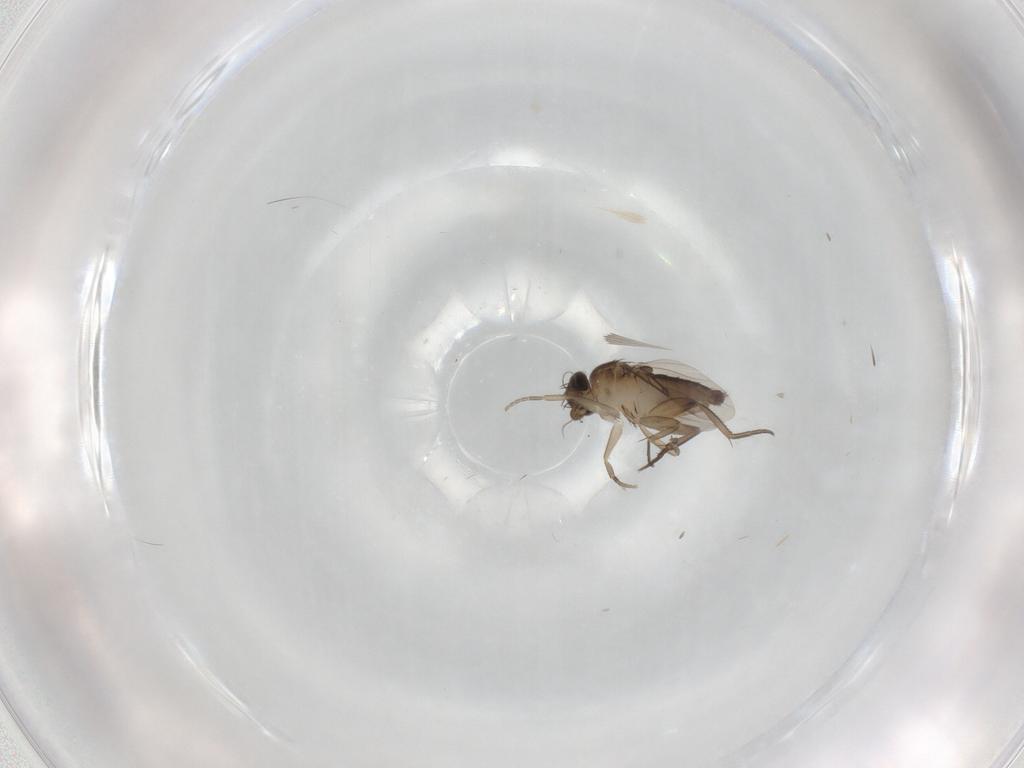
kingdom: Animalia
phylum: Arthropoda
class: Insecta
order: Diptera
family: Phoridae
